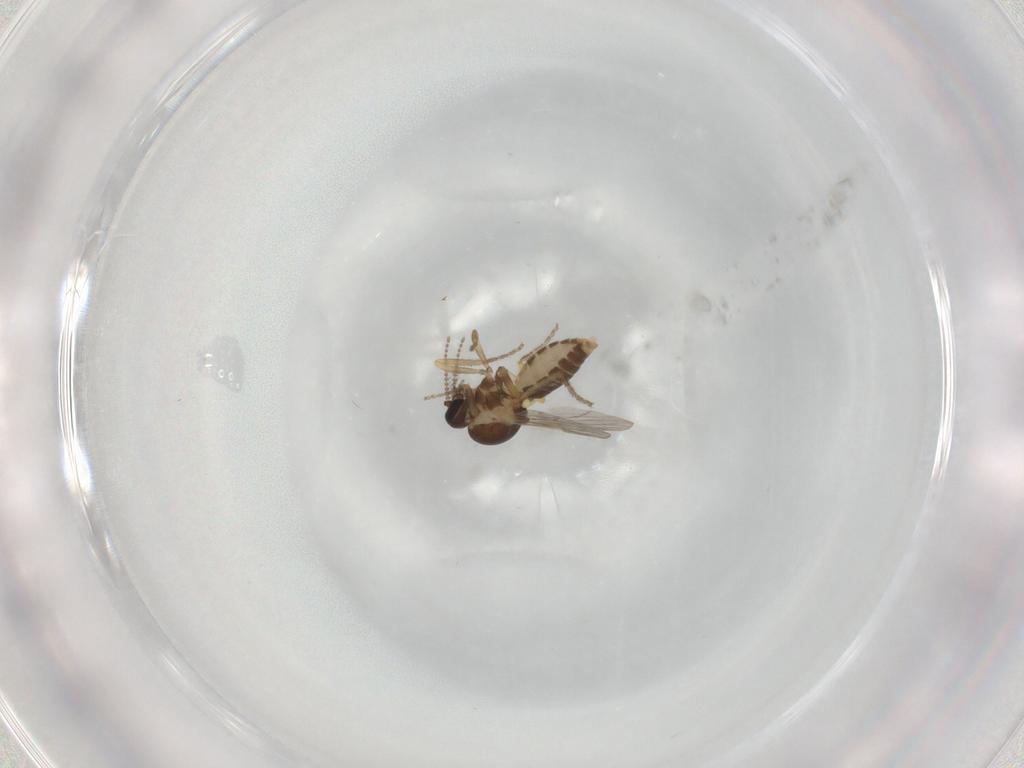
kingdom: Animalia
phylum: Arthropoda
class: Insecta
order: Diptera
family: Ceratopogonidae
